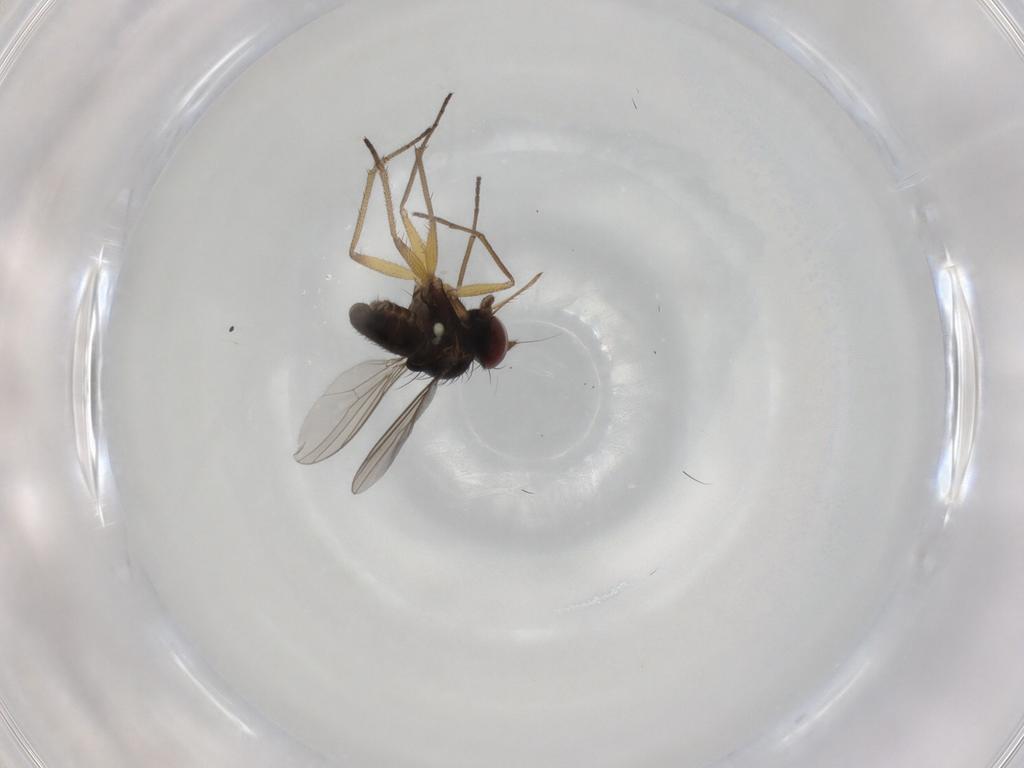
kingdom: Animalia
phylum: Arthropoda
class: Insecta
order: Diptera
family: Dolichopodidae
